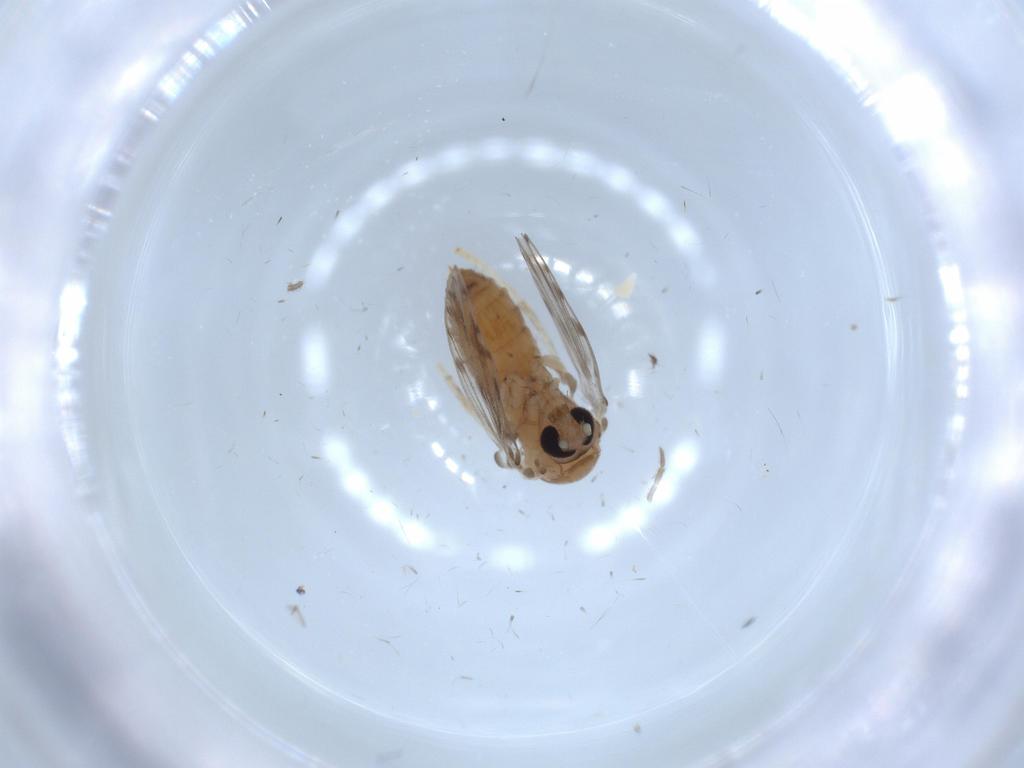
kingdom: Animalia
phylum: Arthropoda
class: Insecta
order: Diptera
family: Psychodidae
